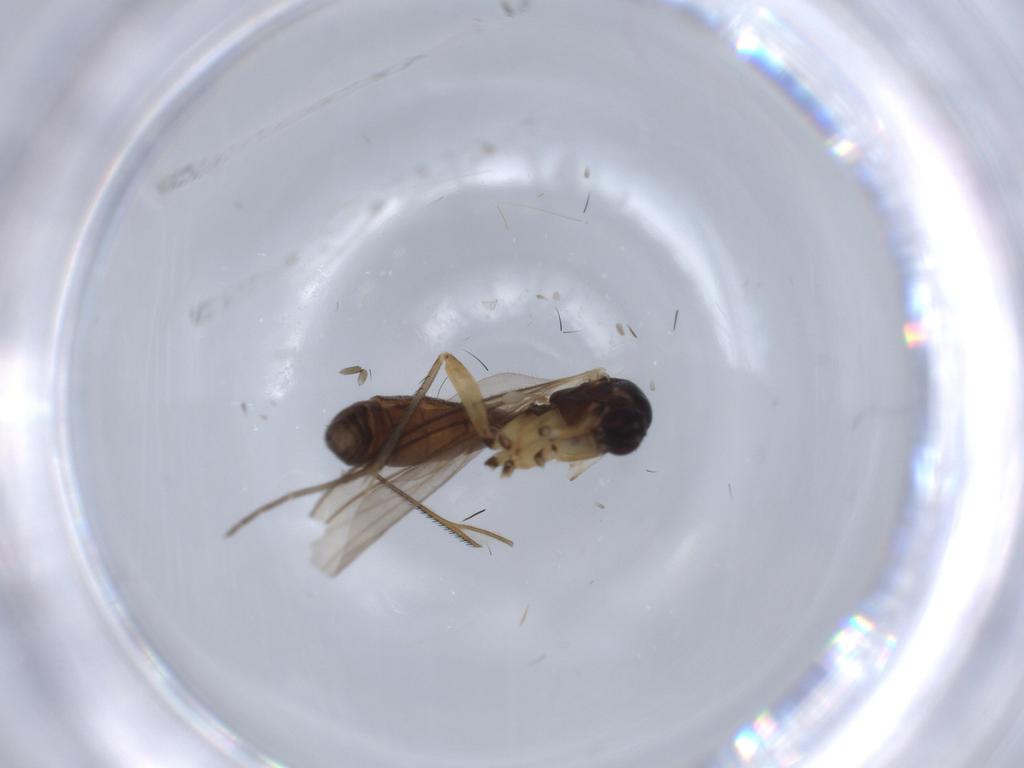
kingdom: Animalia
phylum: Arthropoda
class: Insecta
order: Diptera
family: Mycetophilidae
